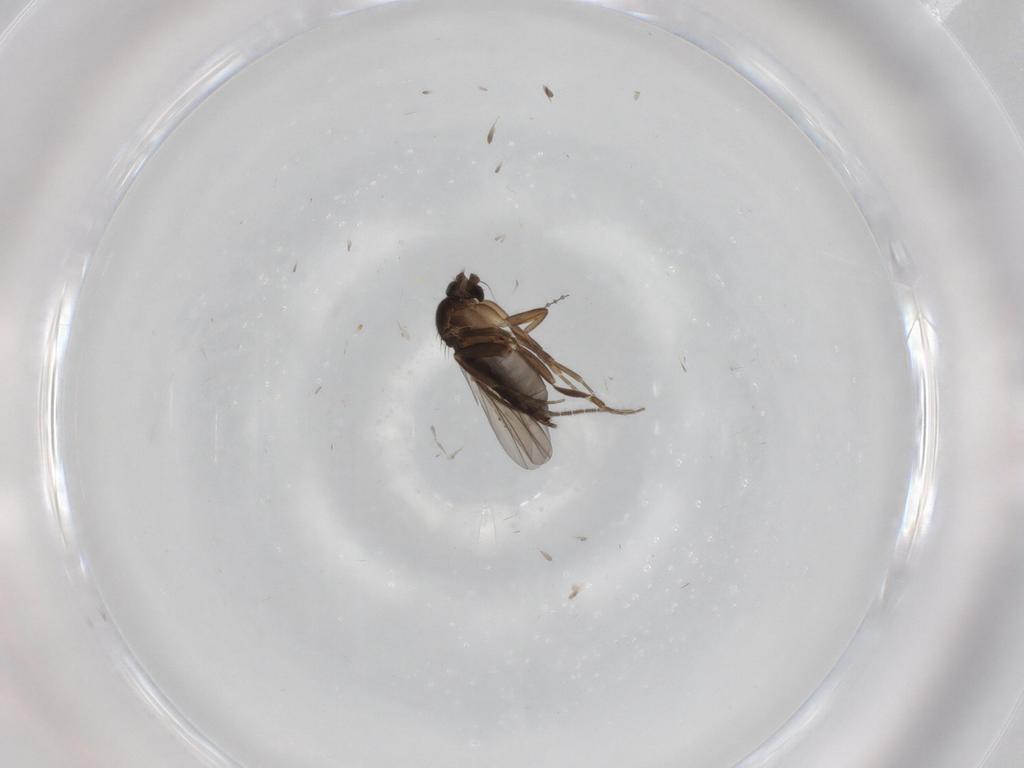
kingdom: Animalia
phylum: Arthropoda
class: Insecta
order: Diptera
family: Phoridae
